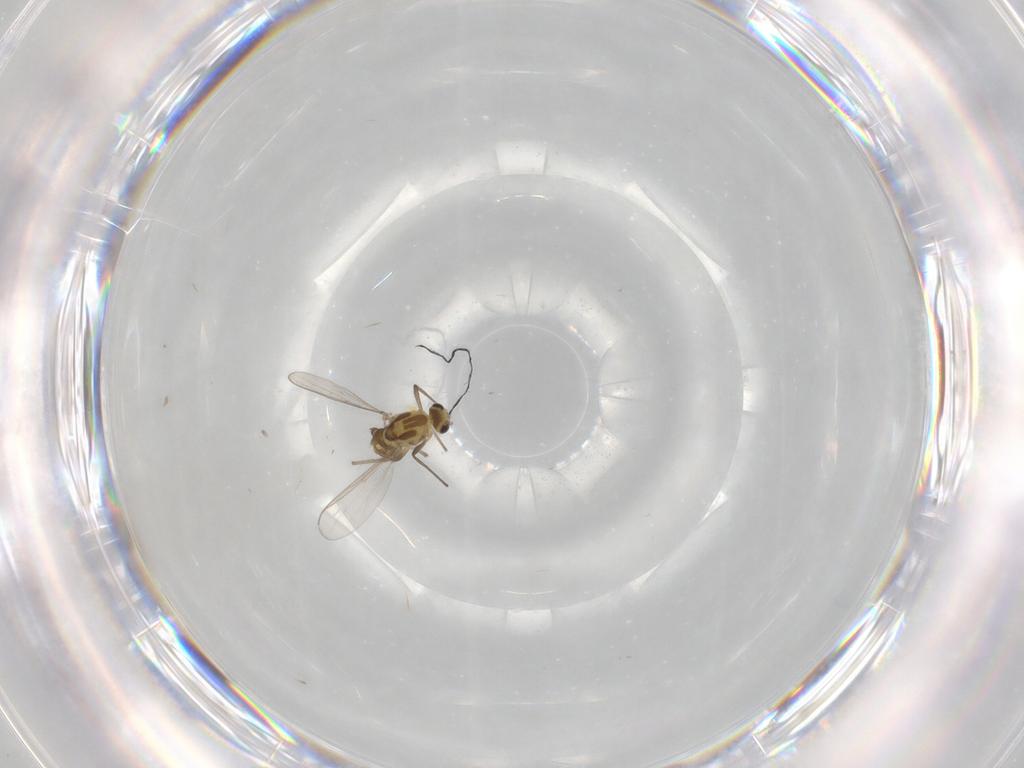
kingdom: Animalia
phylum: Arthropoda
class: Insecta
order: Diptera
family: Chironomidae
